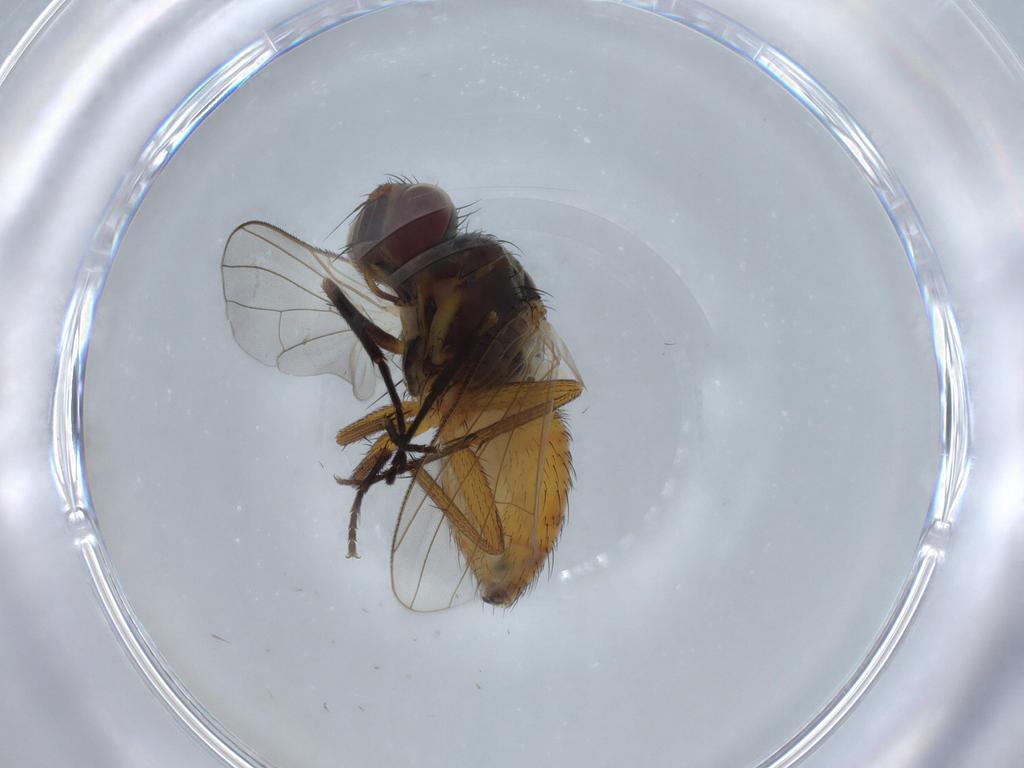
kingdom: Animalia
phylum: Arthropoda
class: Insecta
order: Diptera
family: Muscidae
